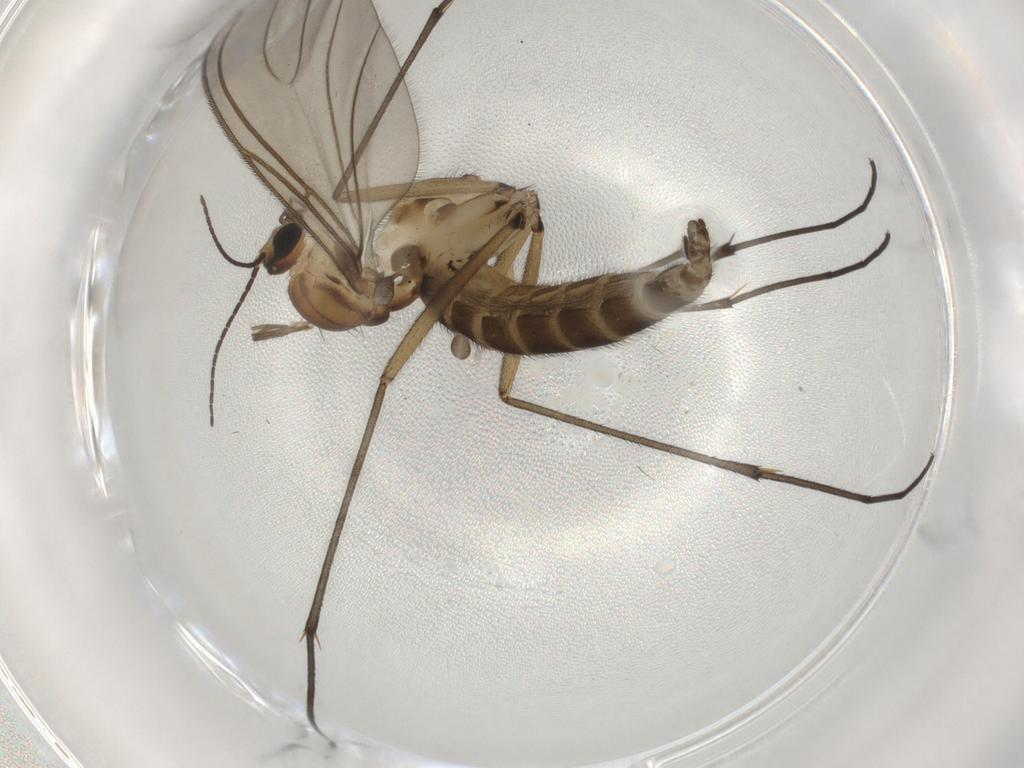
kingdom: Animalia
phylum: Arthropoda
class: Insecta
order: Diptera
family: Sciaridae
